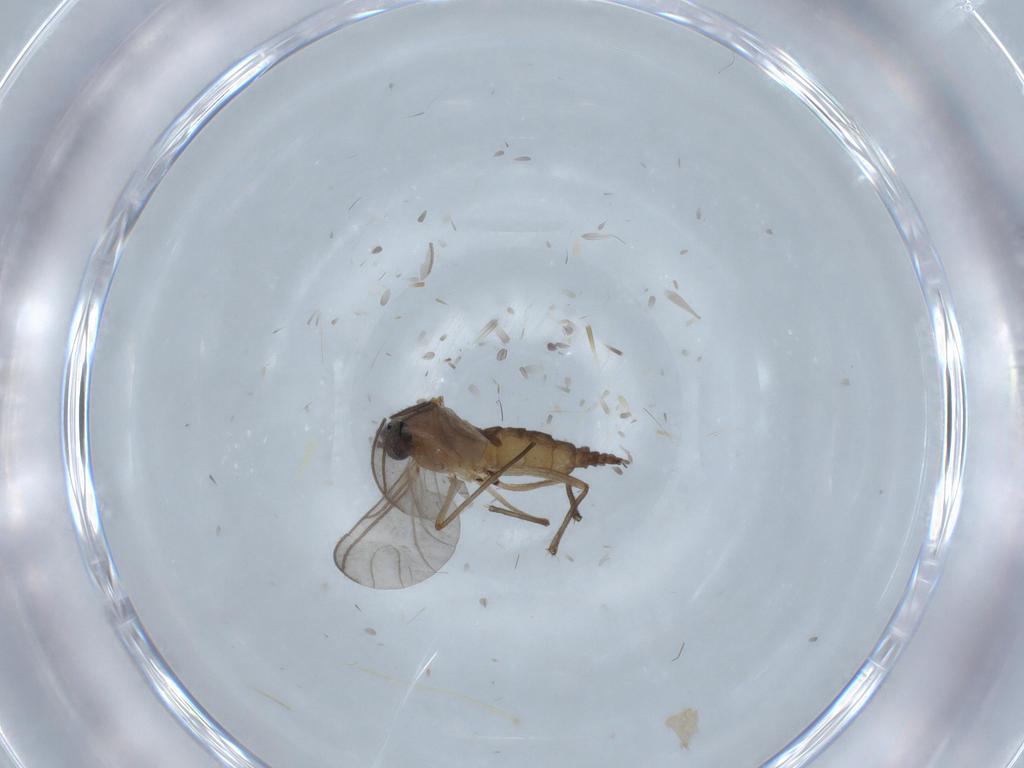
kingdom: Animalia
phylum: Arthropoda
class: Insecta
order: Diptera
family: Sciaridae
